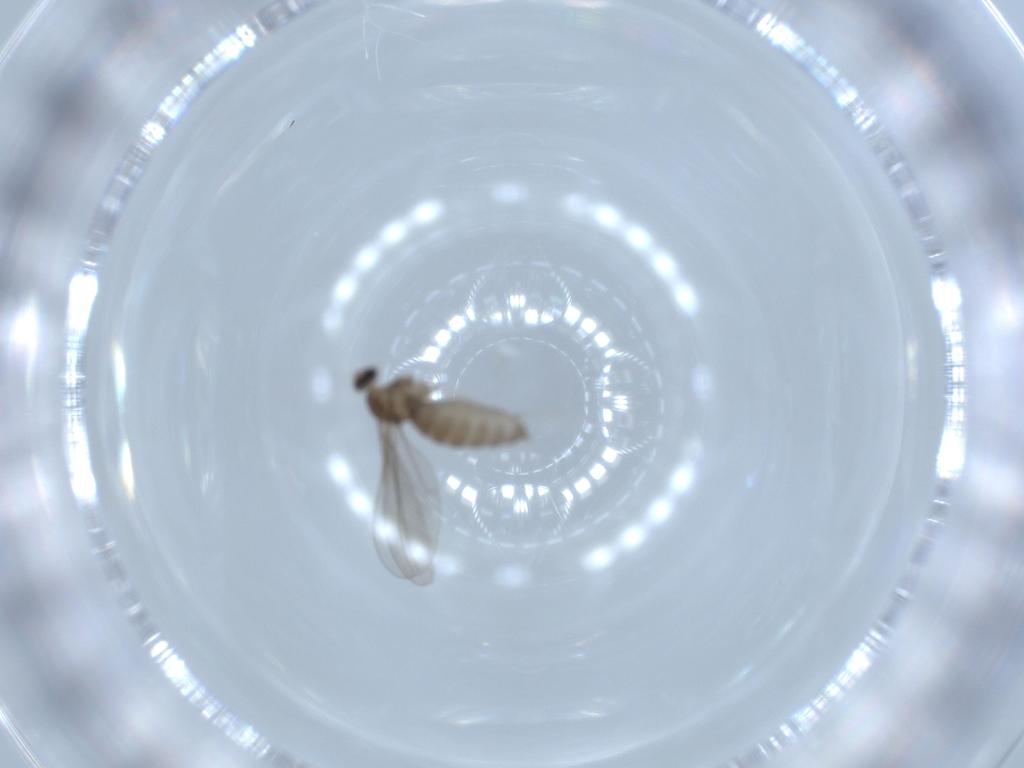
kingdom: Animalia
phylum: Arthropoda
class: Insecta
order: Diptera
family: Cecidomyiidae
